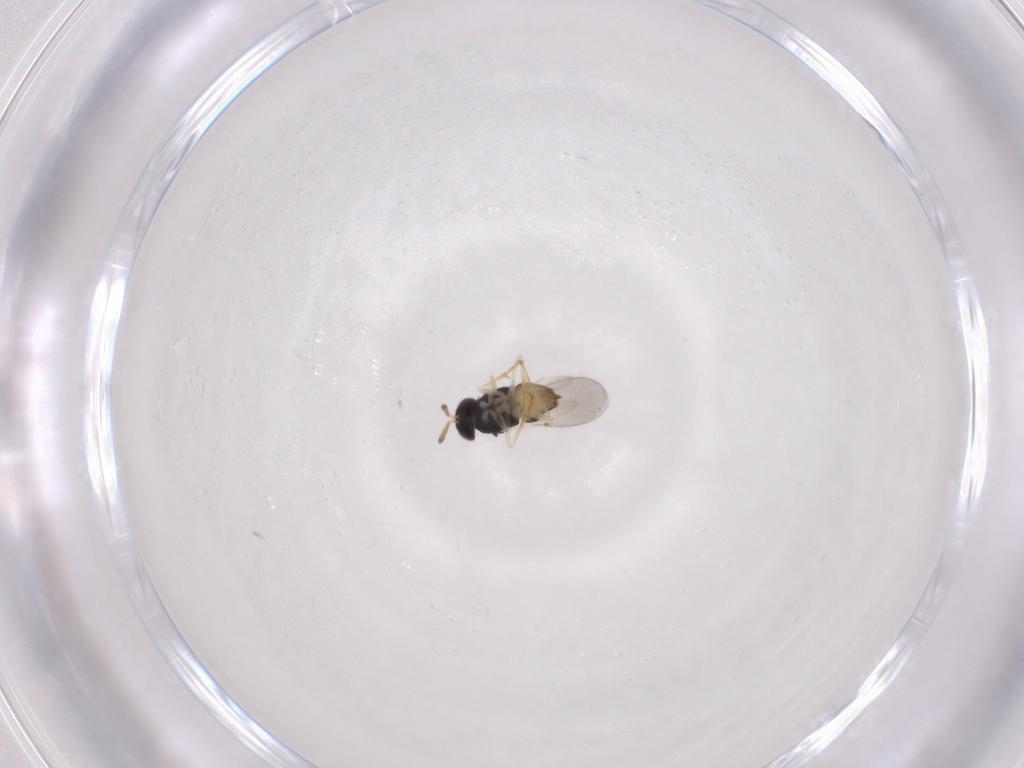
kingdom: Animalia
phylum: Arthropoda
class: Insecta
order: Hymenoptera
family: Encyrtidae
